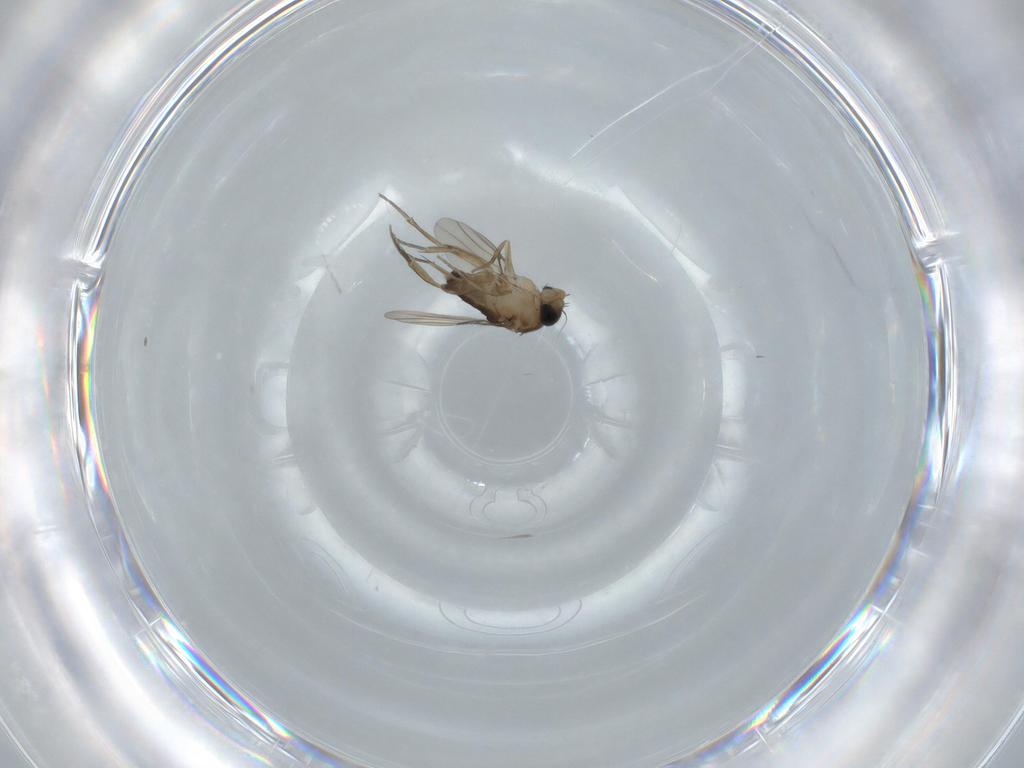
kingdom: Animalia
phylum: Arthropoda
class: Insecta
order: Diptera
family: Phoridae
